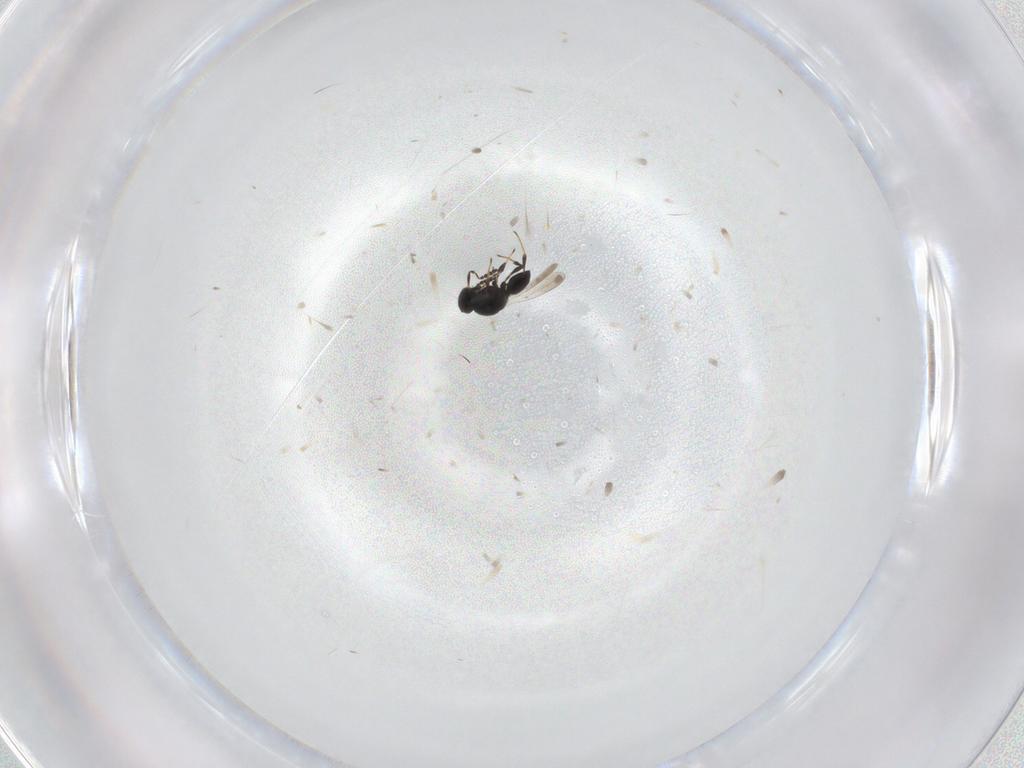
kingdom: Animalia
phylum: Arthropoda
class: Insecta
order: Hymenoptera
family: Platygastridae
